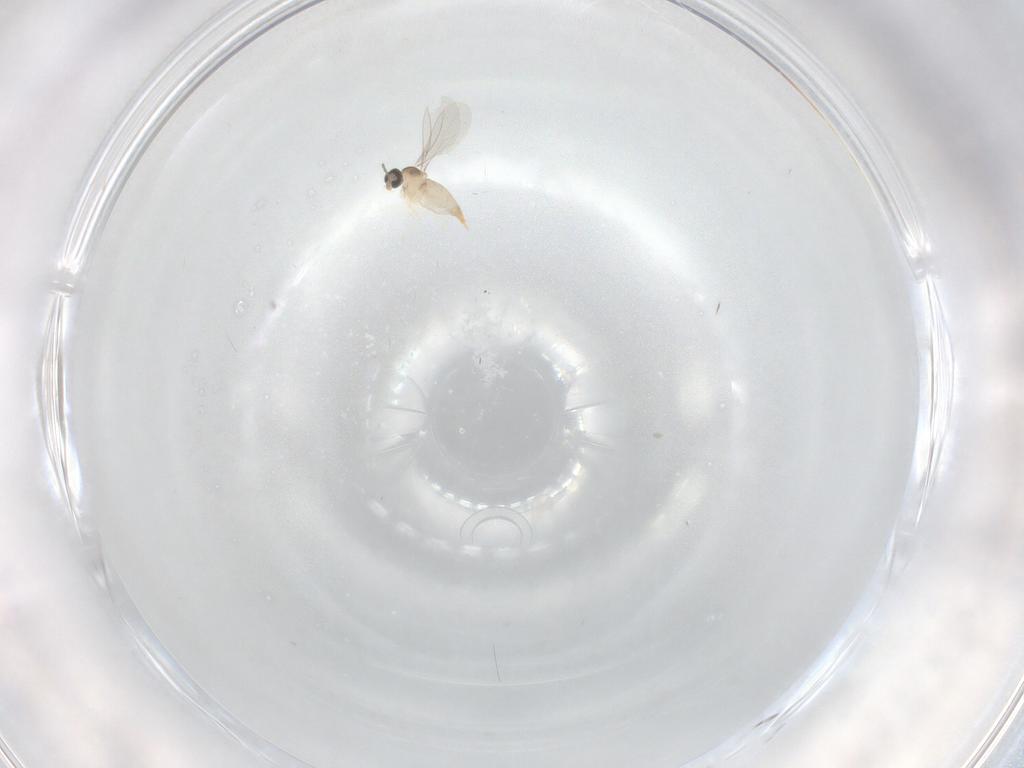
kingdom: Animalia
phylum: Arthropoda
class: Insecta
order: Diptera
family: Cecidomyiidae
